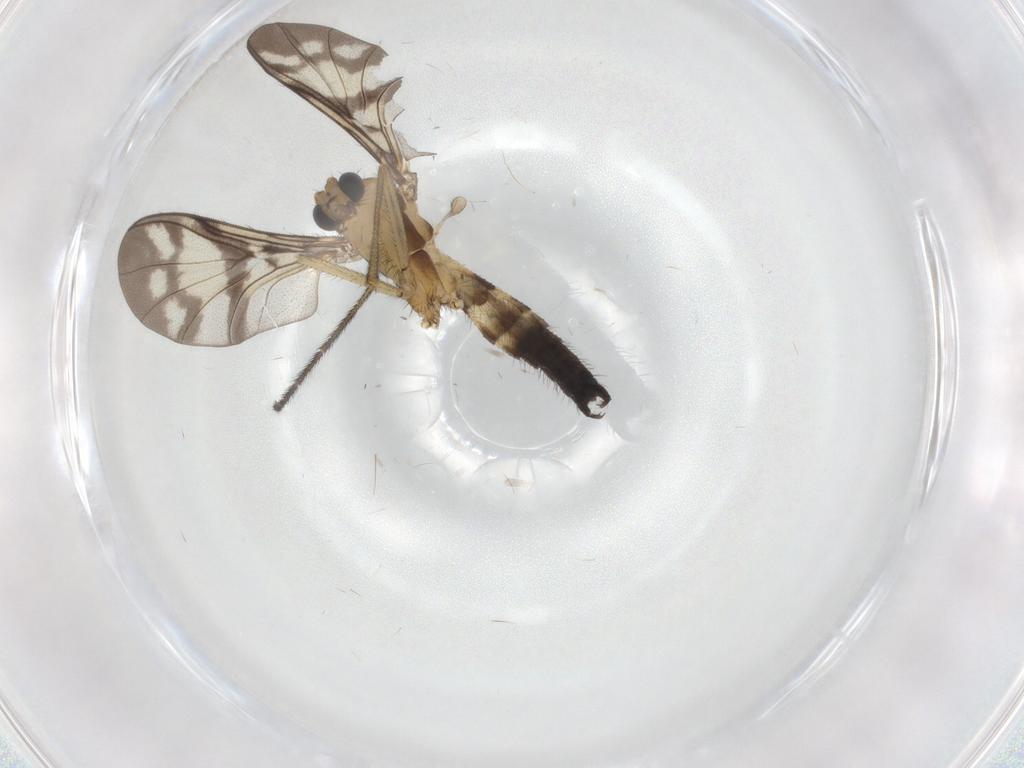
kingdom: Animalia
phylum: Arthropoda
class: Insecta
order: Diptera
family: Keroplatidae
